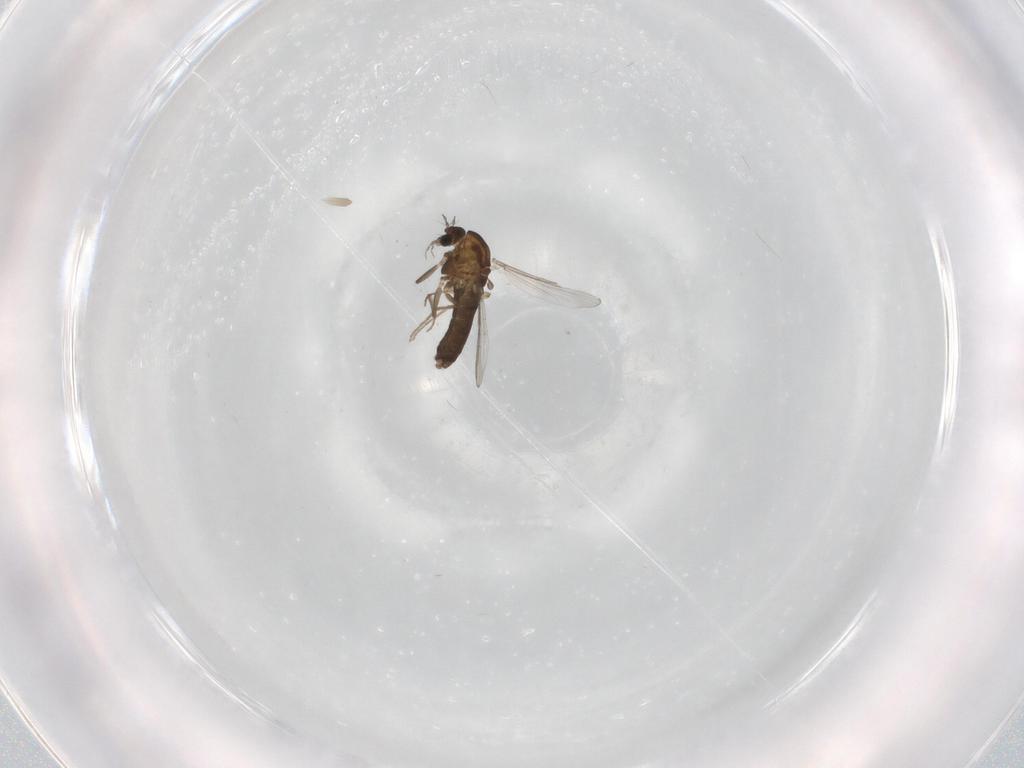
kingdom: Animalia
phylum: Arthropoda
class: Insecta
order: Diptera
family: Chironomidae
